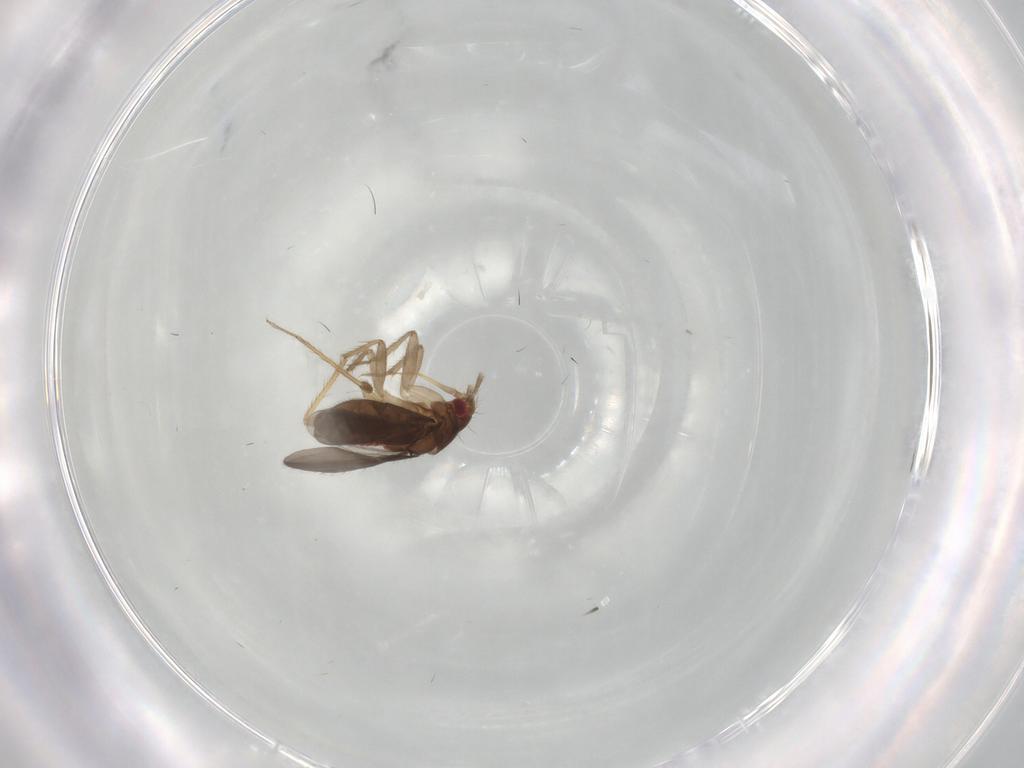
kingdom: Animalia
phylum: Arthropoda
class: Insecta
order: Hemiptera
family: Ceratocombidae
